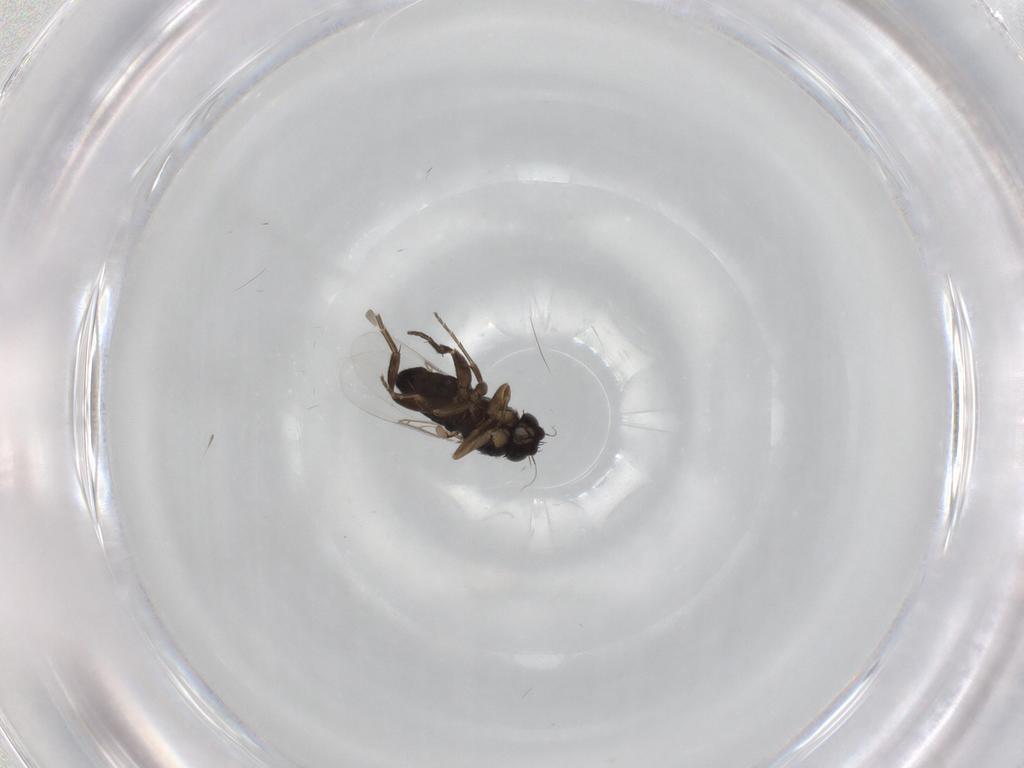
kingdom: Animalia
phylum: Arthropoda
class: Insecta
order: Diptera
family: Phoridae
